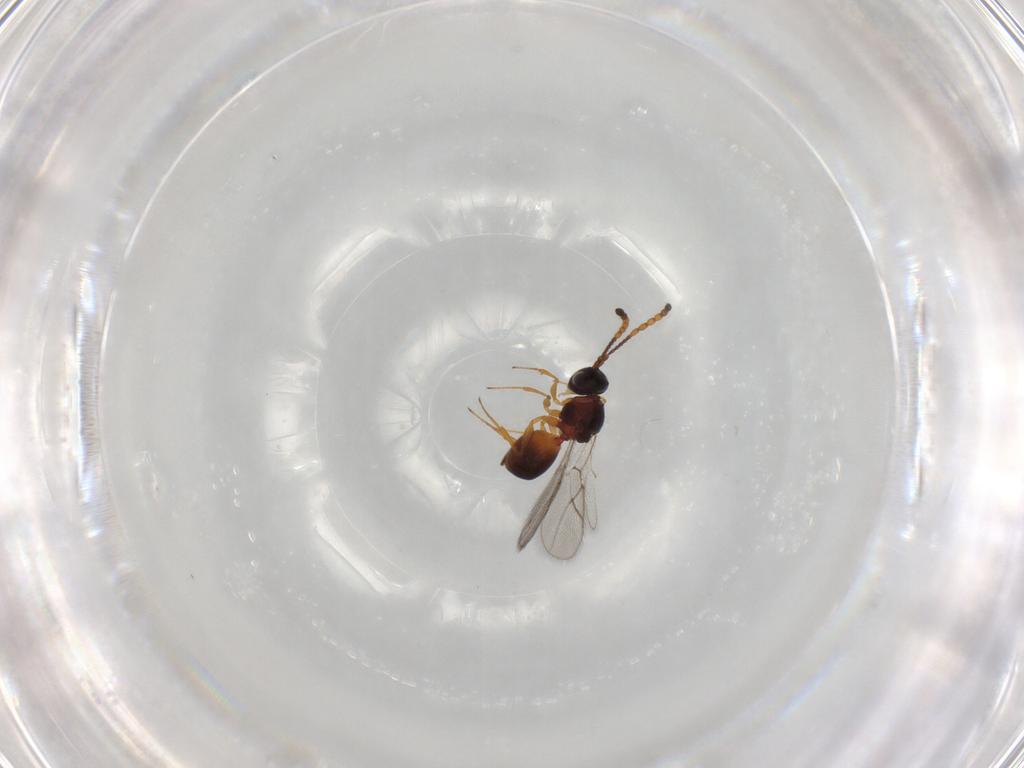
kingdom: Animalia
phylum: Arthropoda
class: Insecta
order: Hymenoptera
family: Figitidae
